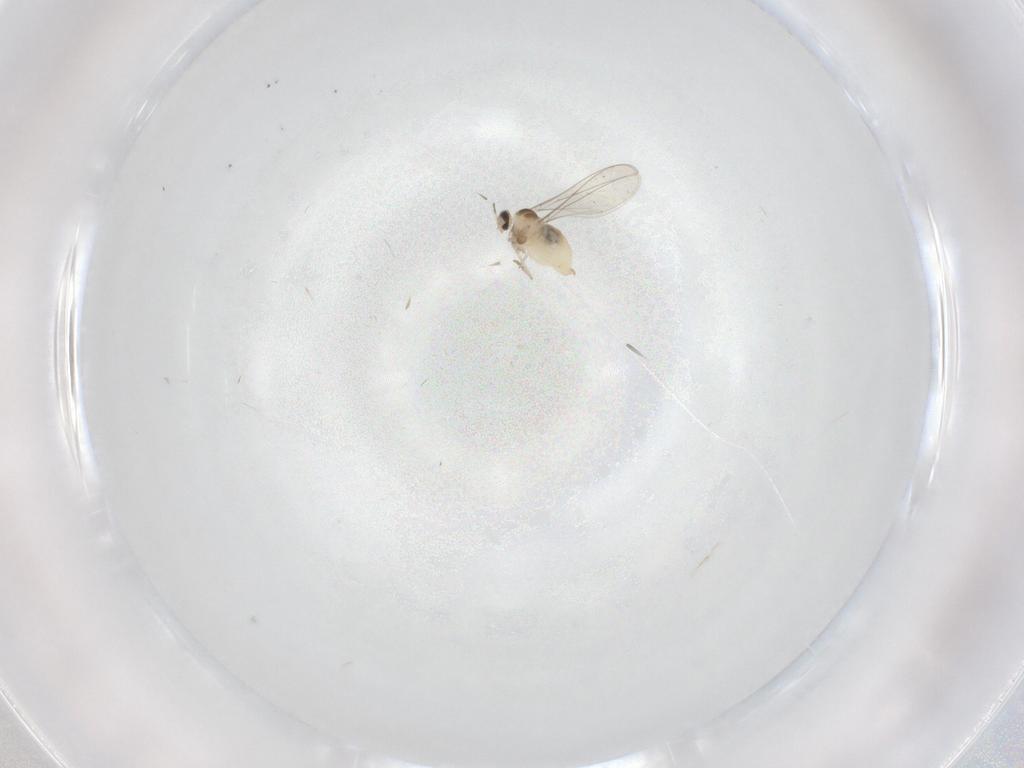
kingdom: Animalia
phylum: Arthropoda
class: Insecta
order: Diptera
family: Cecidomyiidae
